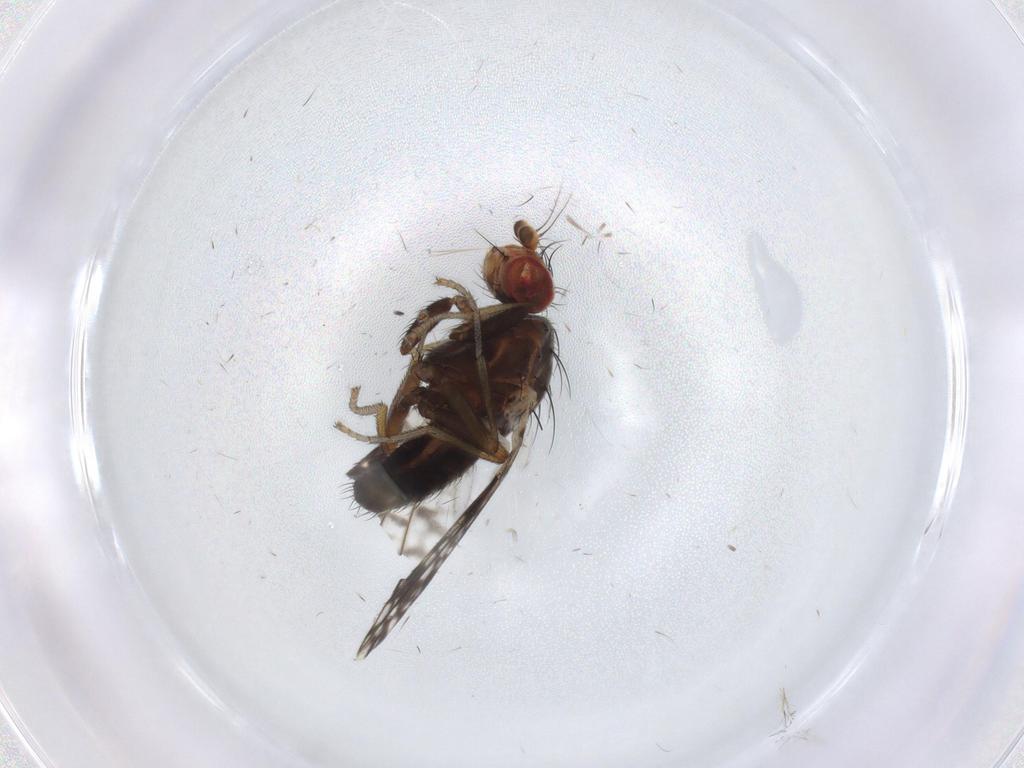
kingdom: Animalia
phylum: Arthropoda
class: Insecta
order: Diptera
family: Tephritidae
